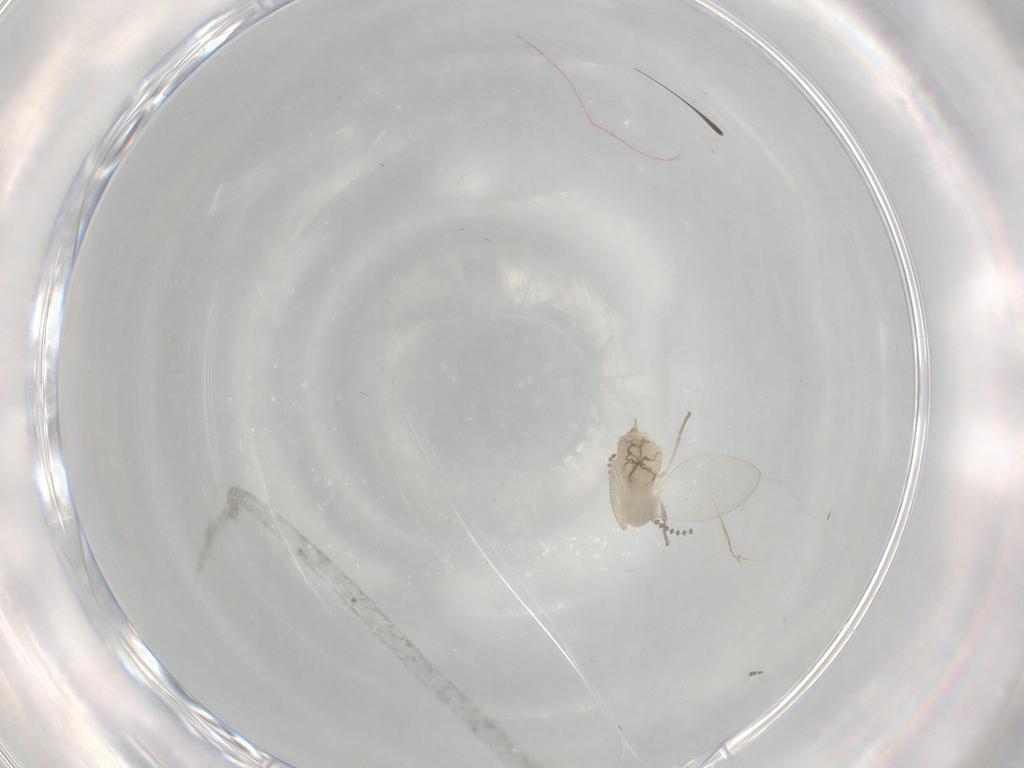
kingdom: Animalia
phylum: Arthropoda
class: Insecta
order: Diptera
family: Psychodidae
